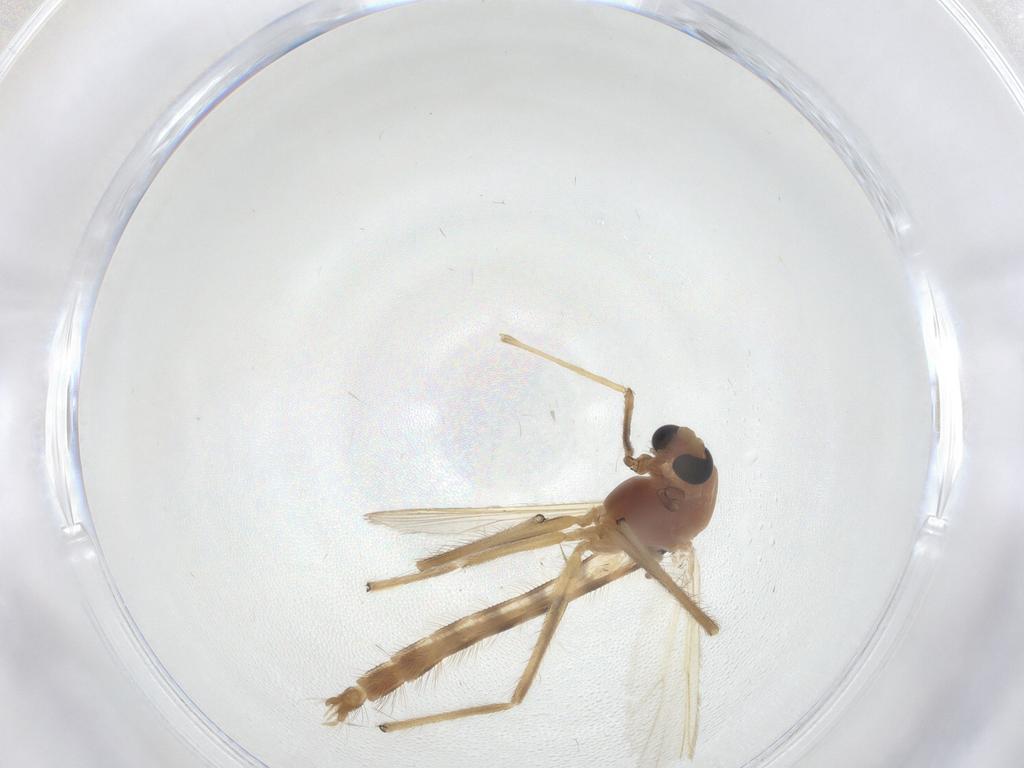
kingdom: Animalia
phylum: Arthropoda
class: Insecta
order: Diptera
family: Chironomidae
